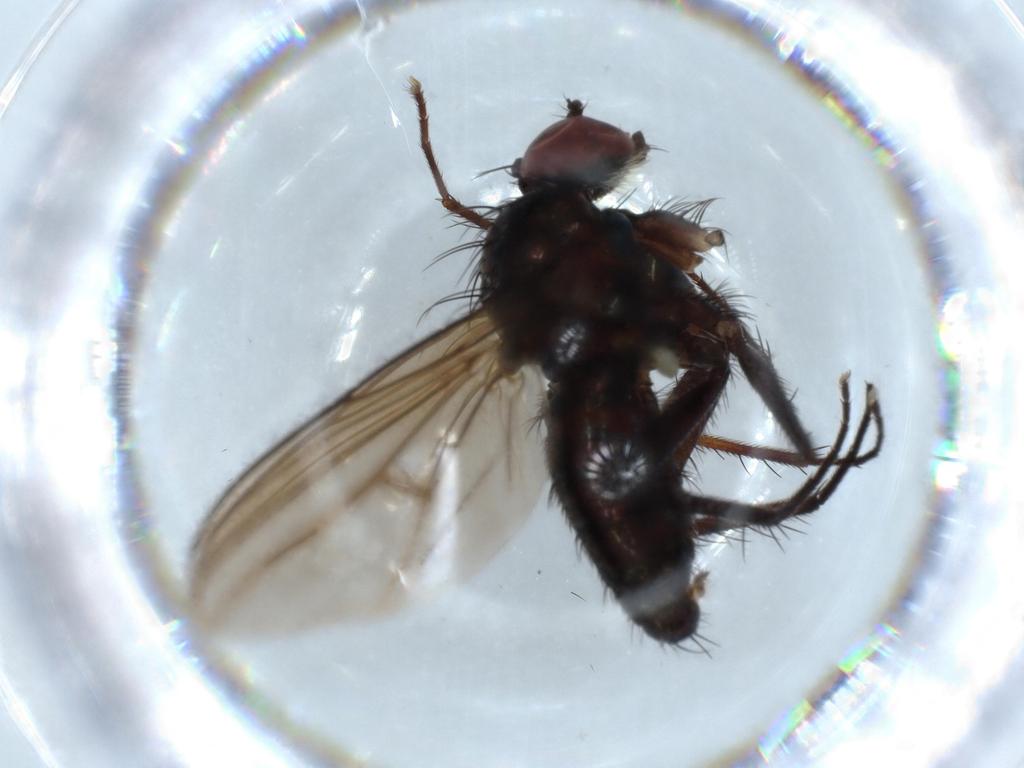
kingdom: Animalia
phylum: Arthropoda
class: Insecta
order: Diptera
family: Dolichopodidae
